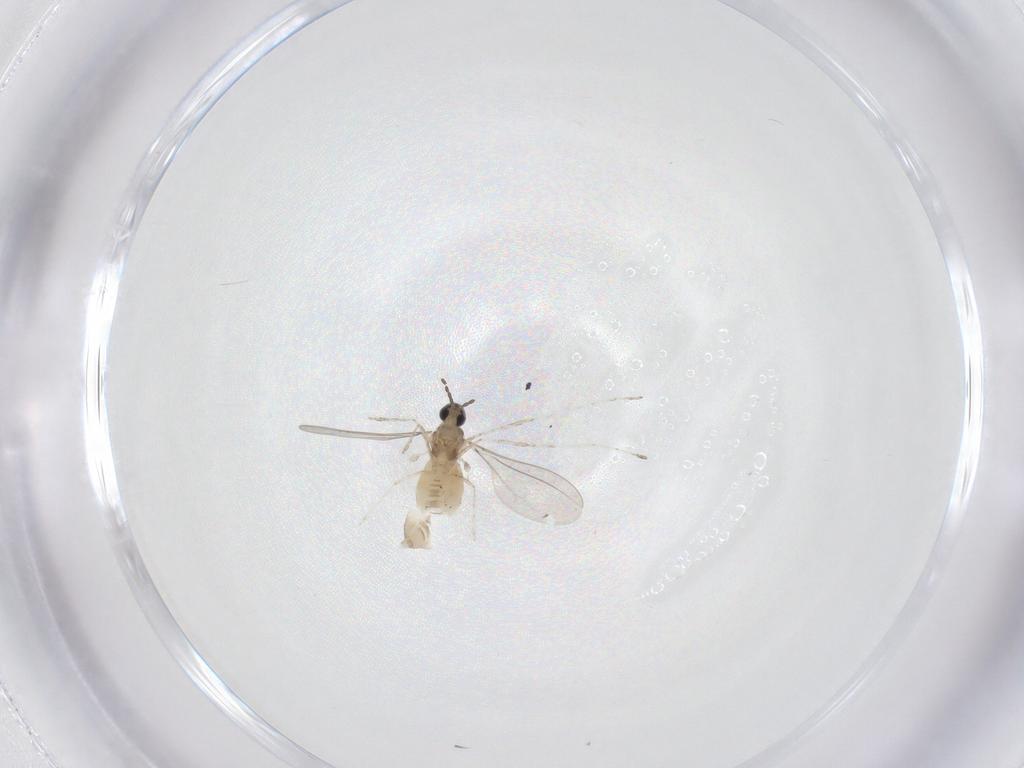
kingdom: Animalia
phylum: Arthropoda
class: Insecta
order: Diptera
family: Cecidomyiidae
